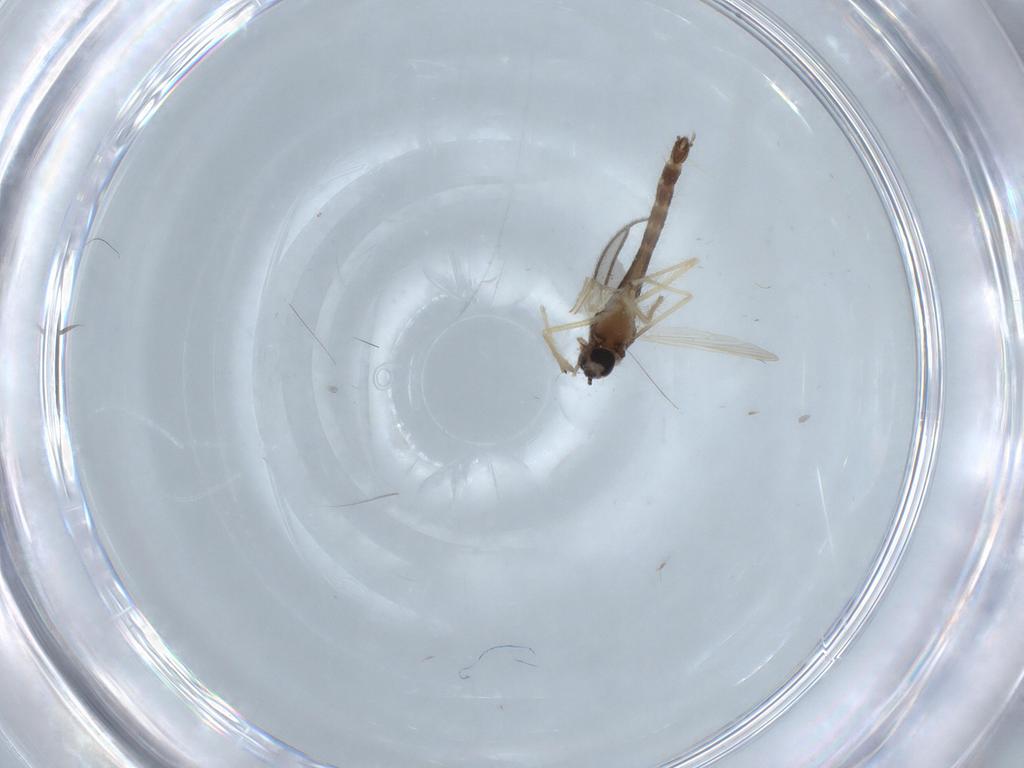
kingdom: Animalia
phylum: Arthropoda
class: Insecta
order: Diptera
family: Chironomidae
